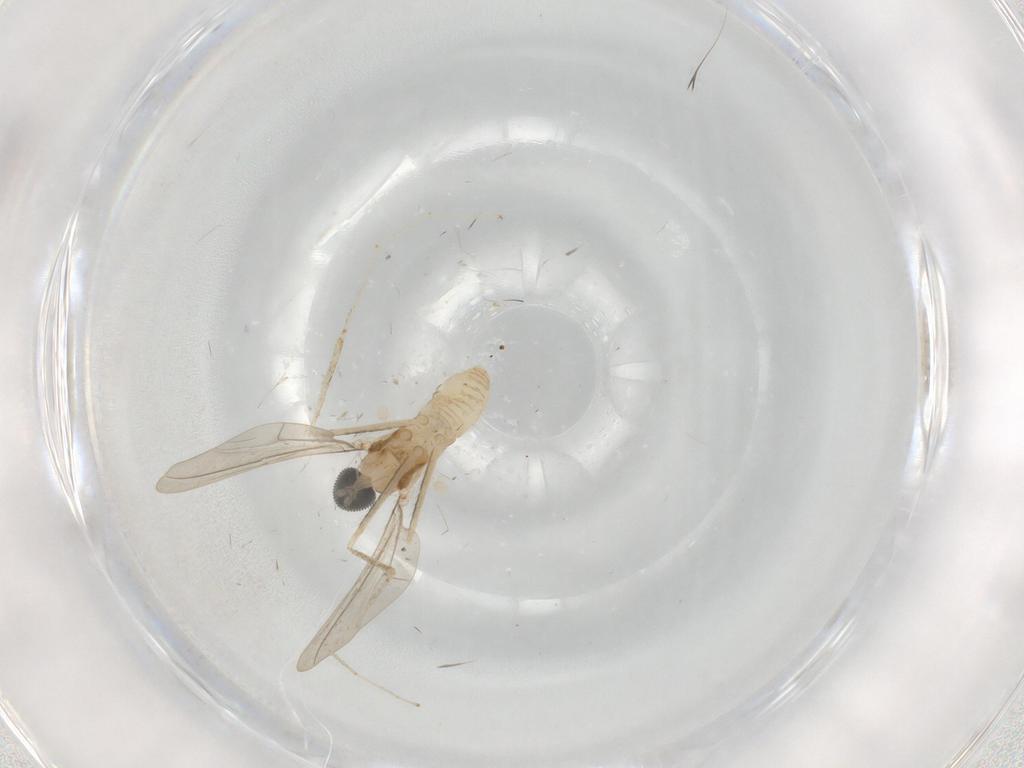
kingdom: Animalia
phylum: Arthropoda
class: Insecta
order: Diptera
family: Cecidomyiidae
